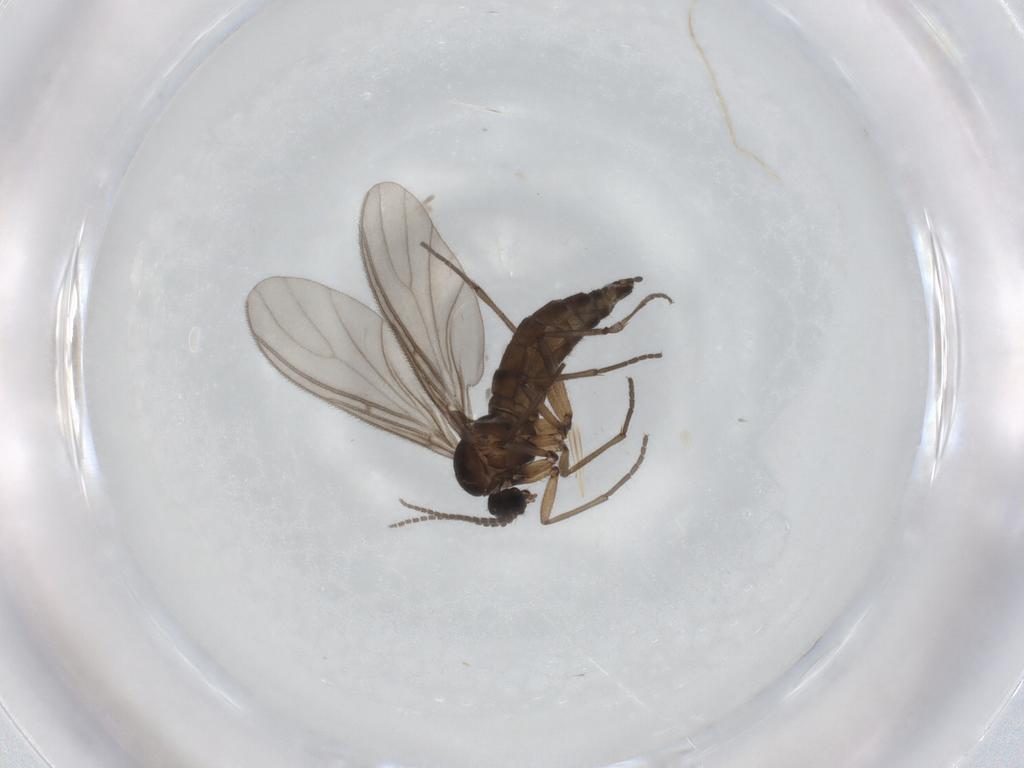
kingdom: Animalia
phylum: Arthropoda
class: Insecta
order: Diptera
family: Sciaridae
